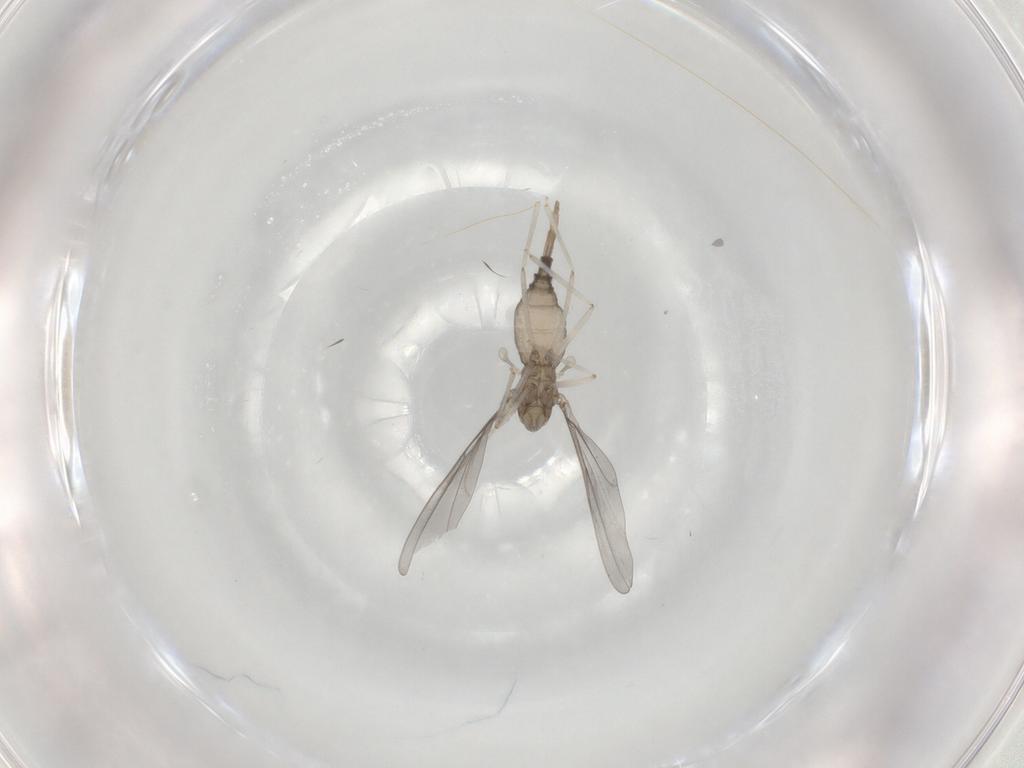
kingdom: Animalia
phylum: Arthropoda
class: Insecta
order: Diptera
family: Cecidomyiidae
